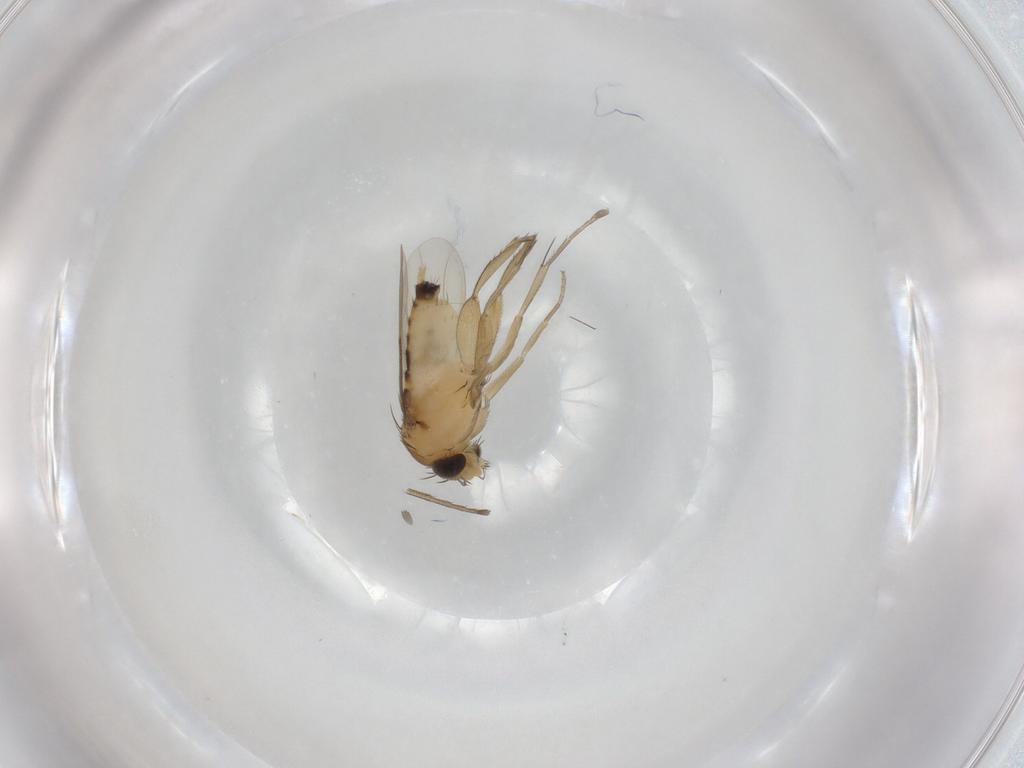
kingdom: Animalia
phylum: Arthropoda
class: Insecta
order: Diptera
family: Phoridae
